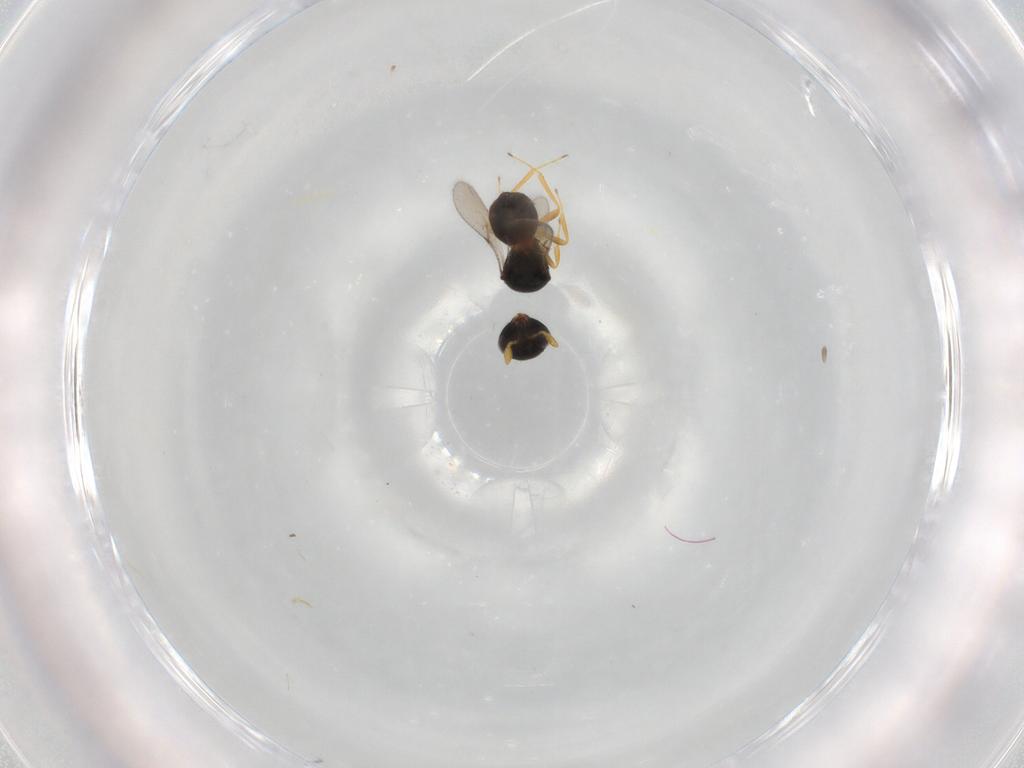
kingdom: Animalia
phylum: Arthropoda
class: Insecta
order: Hymenoptera
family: Scelionidae
